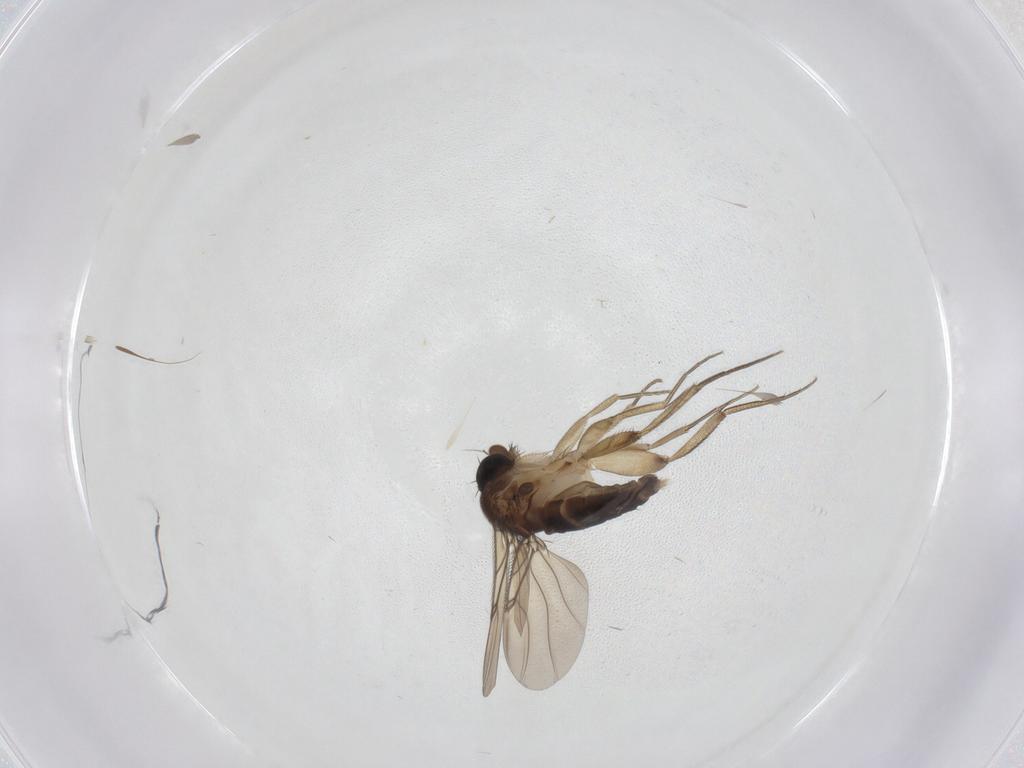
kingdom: Animalia
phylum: Arthropoda
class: Insecta
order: Diptera
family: Phoridae
